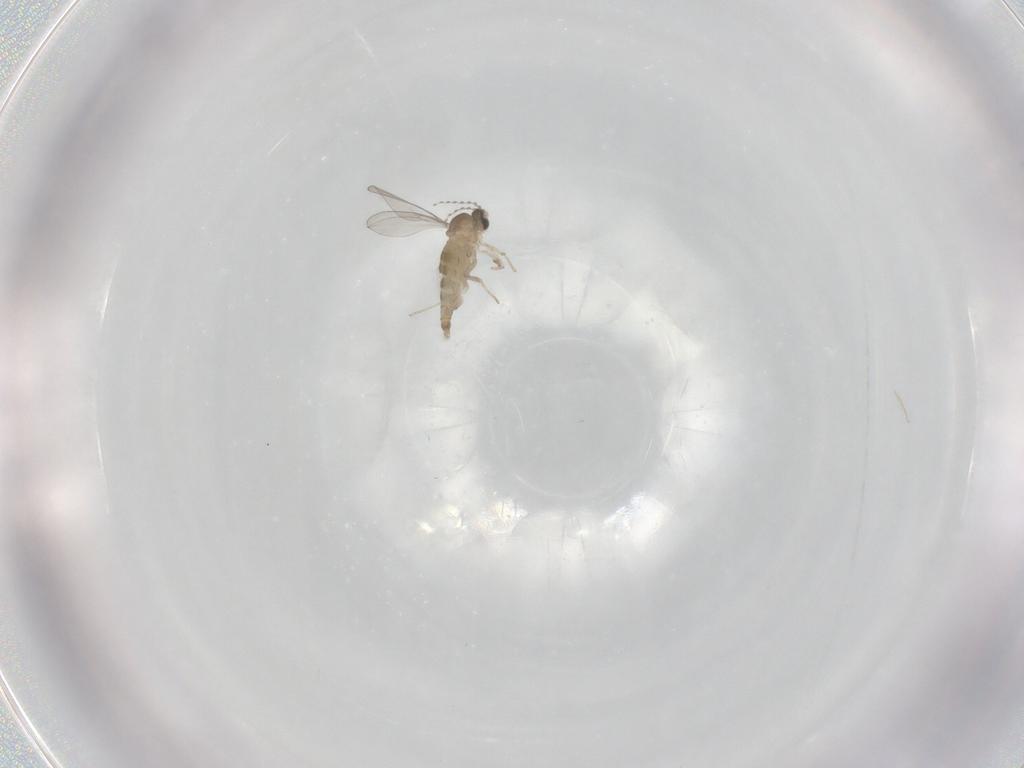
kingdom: Animalia
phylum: Arthropoda
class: Insecta
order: Diptera
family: Cecidomyiidae
